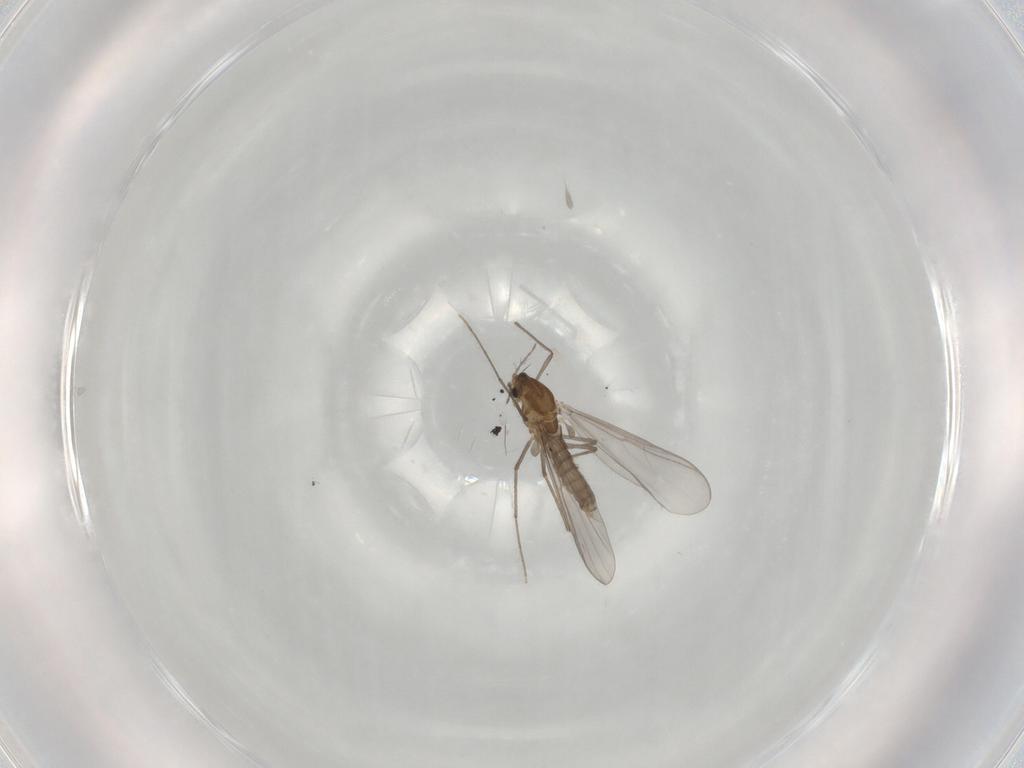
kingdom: Animalia
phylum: Arthropoda
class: Insecta
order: Diptera
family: Chironomidae
